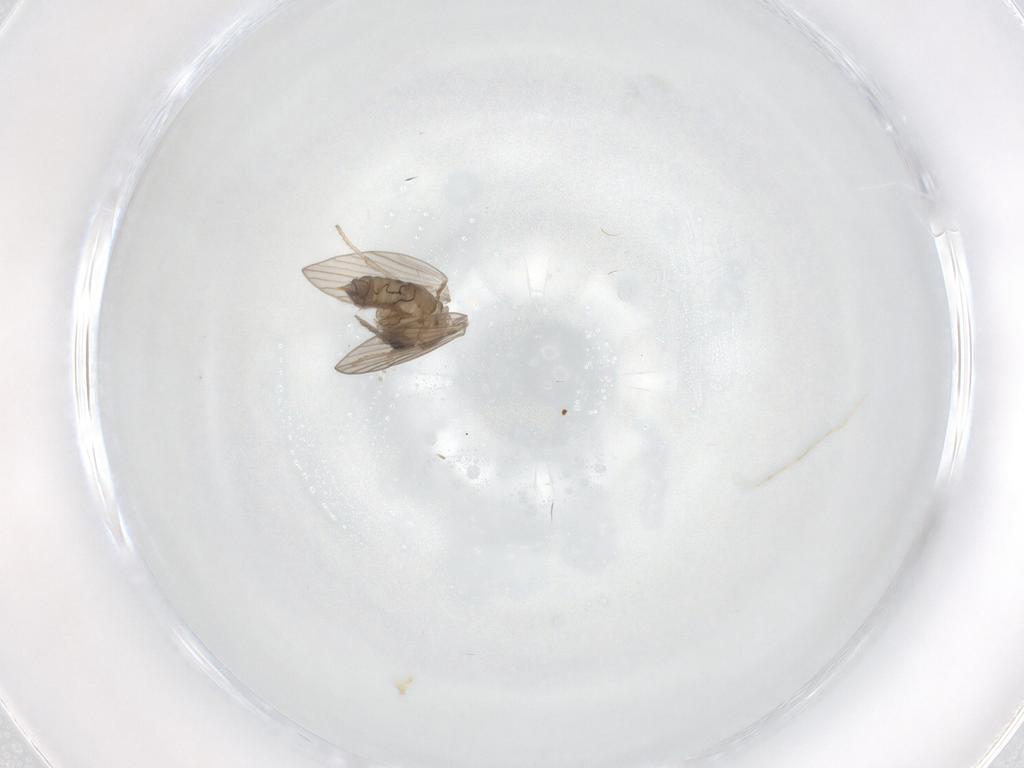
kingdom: Animalia
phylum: Arthropoda
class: Insecta
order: Diptera
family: Psychodidae
